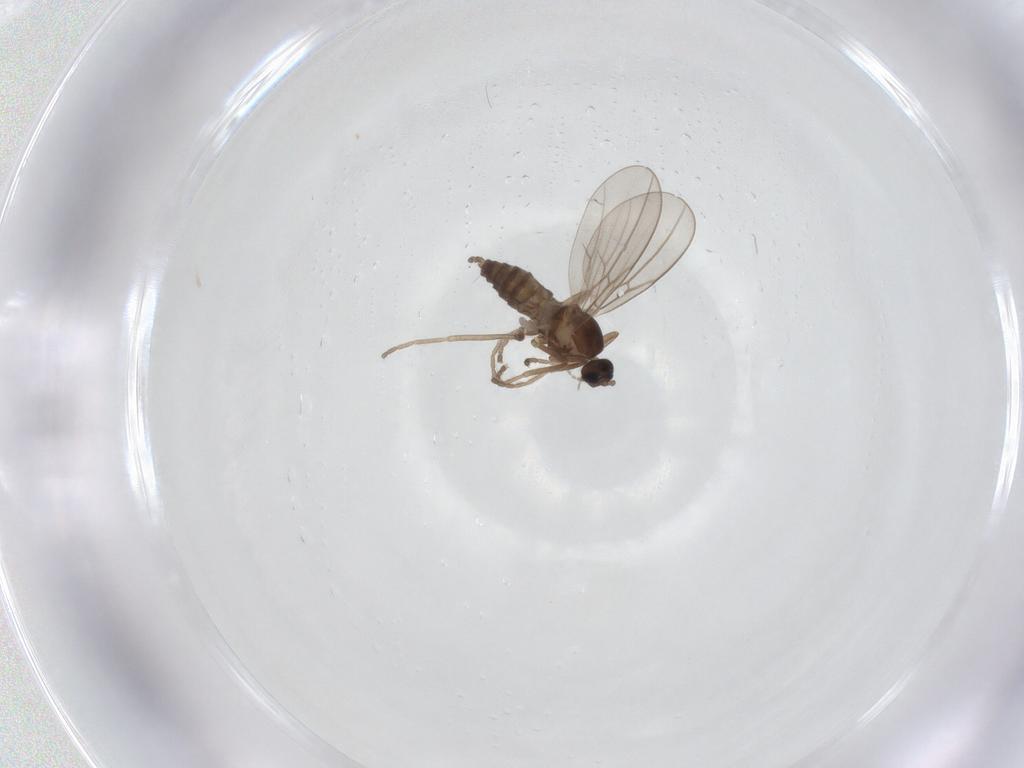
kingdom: Animalia
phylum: Arthropoda
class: Insecta
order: Diptera
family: Cecidomyiidae
